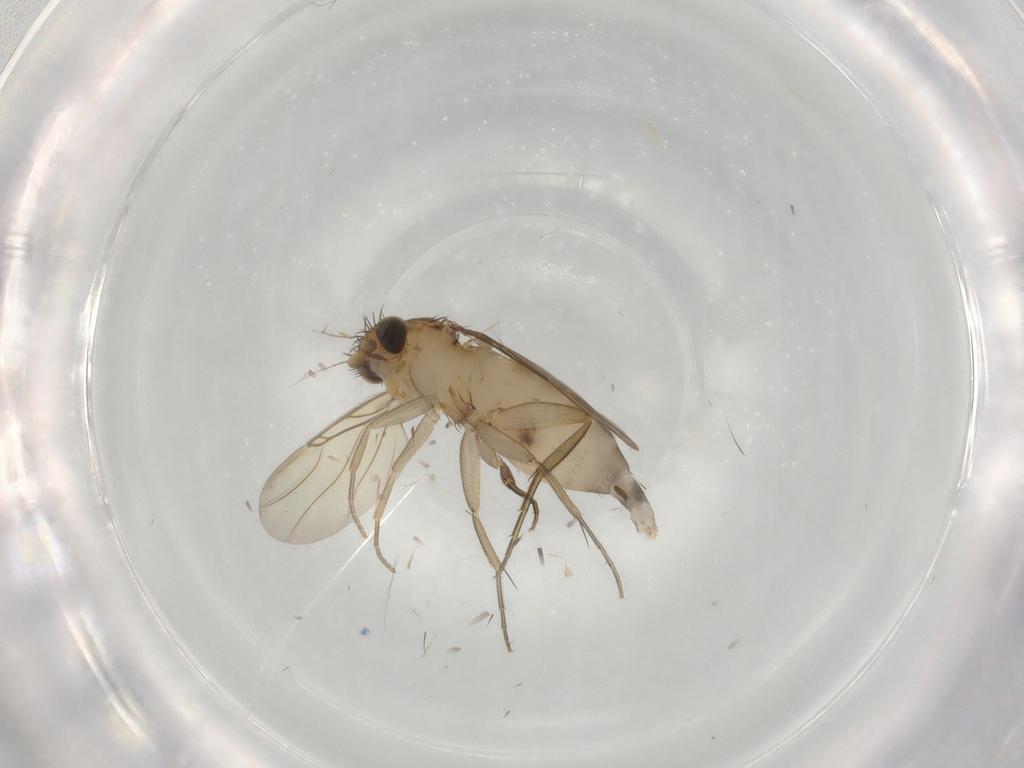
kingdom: Animalia
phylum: Arthropoda
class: Insecta
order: Diptera
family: Phoridae
